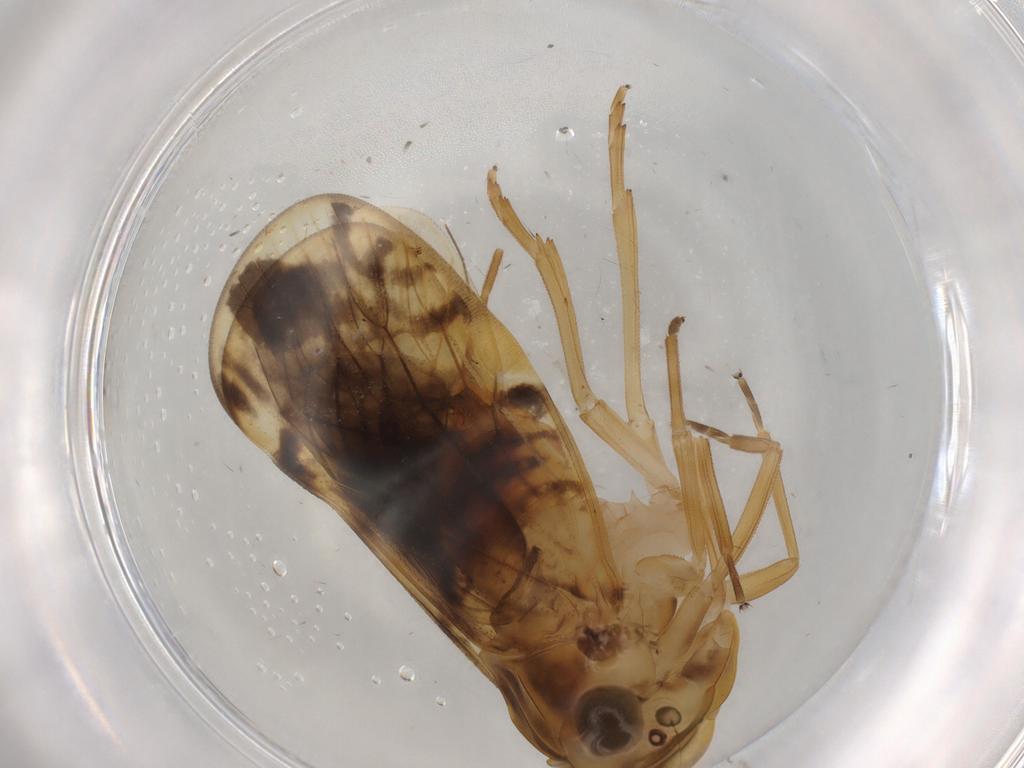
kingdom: Animalia
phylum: Arthropoda
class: Insecta
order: Hemiptera
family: Cixiidae
